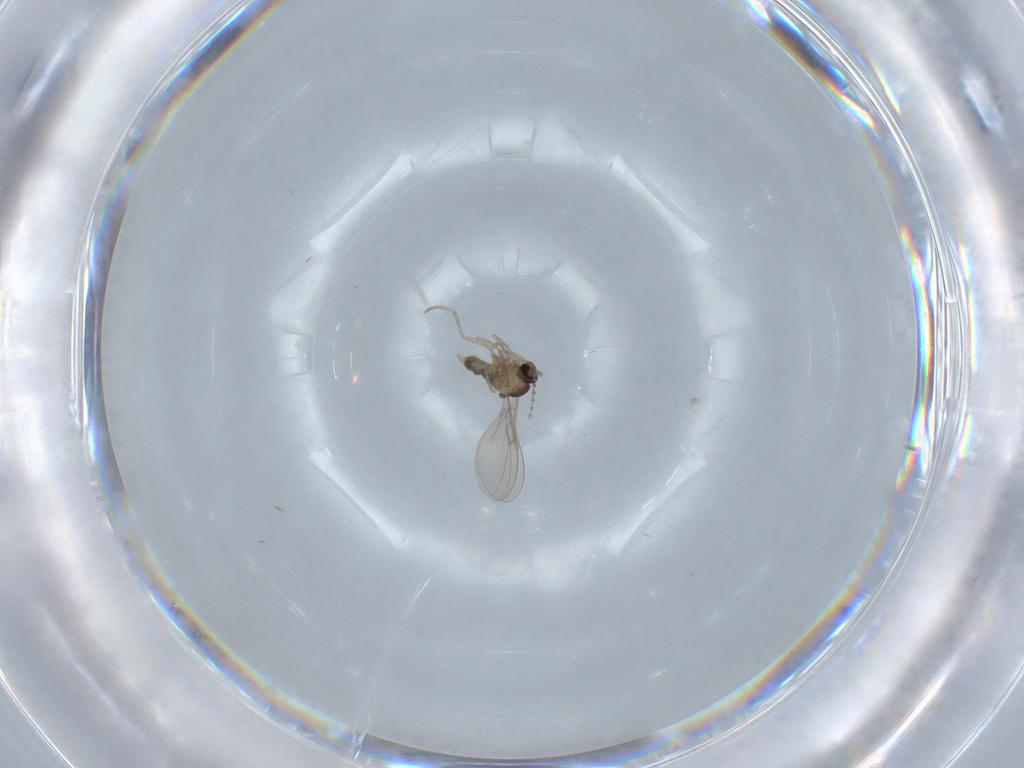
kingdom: Animalia
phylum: Arthropoda
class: Insecta
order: Diptera
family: Cecidomyiidae
